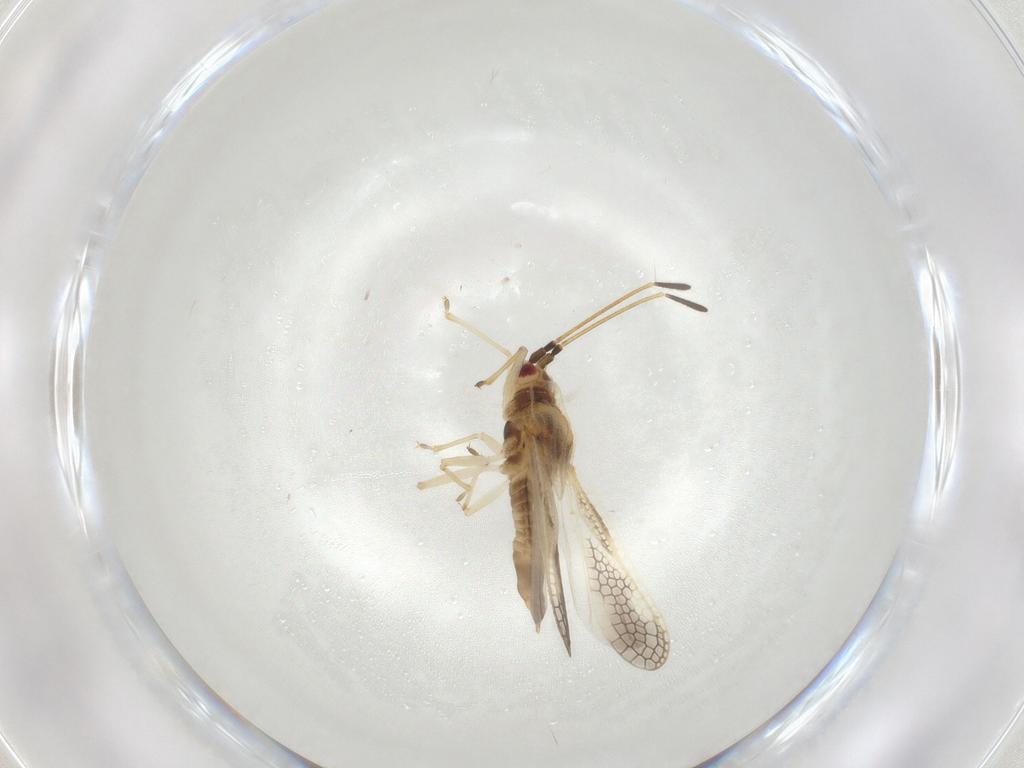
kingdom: Animalia
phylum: Arthropoda
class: Insecta
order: Hemiptera
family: Tingidae
